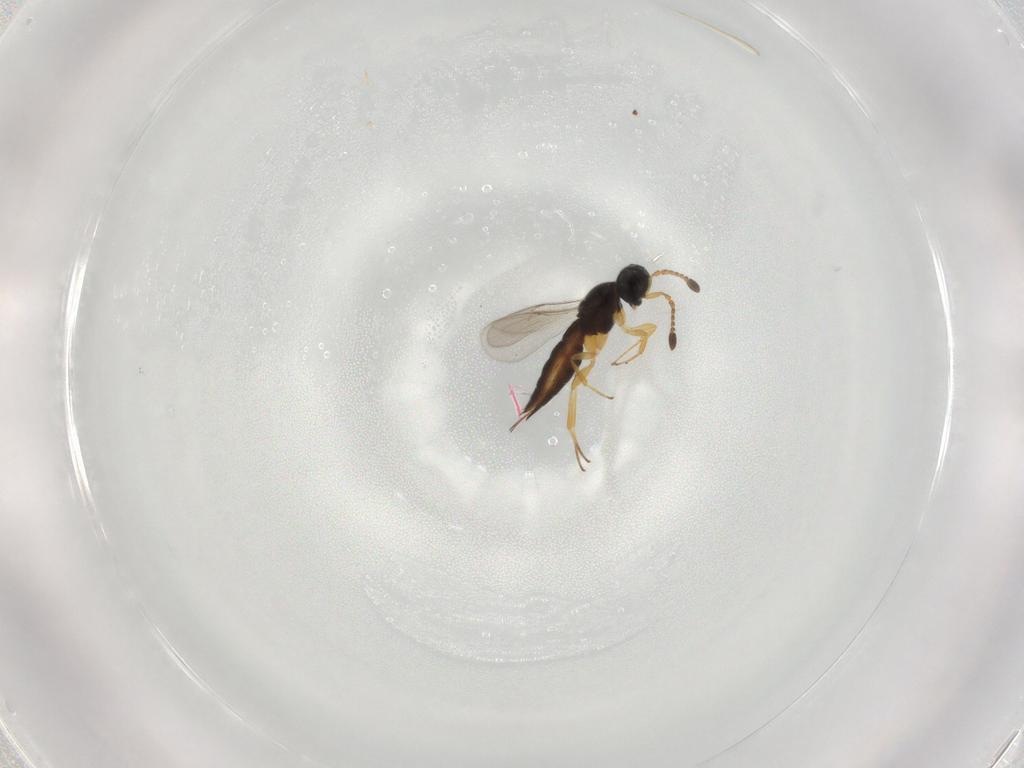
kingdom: Animalia
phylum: Arthropoda
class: Insecta
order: Hymenoptera
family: Scelionidae
